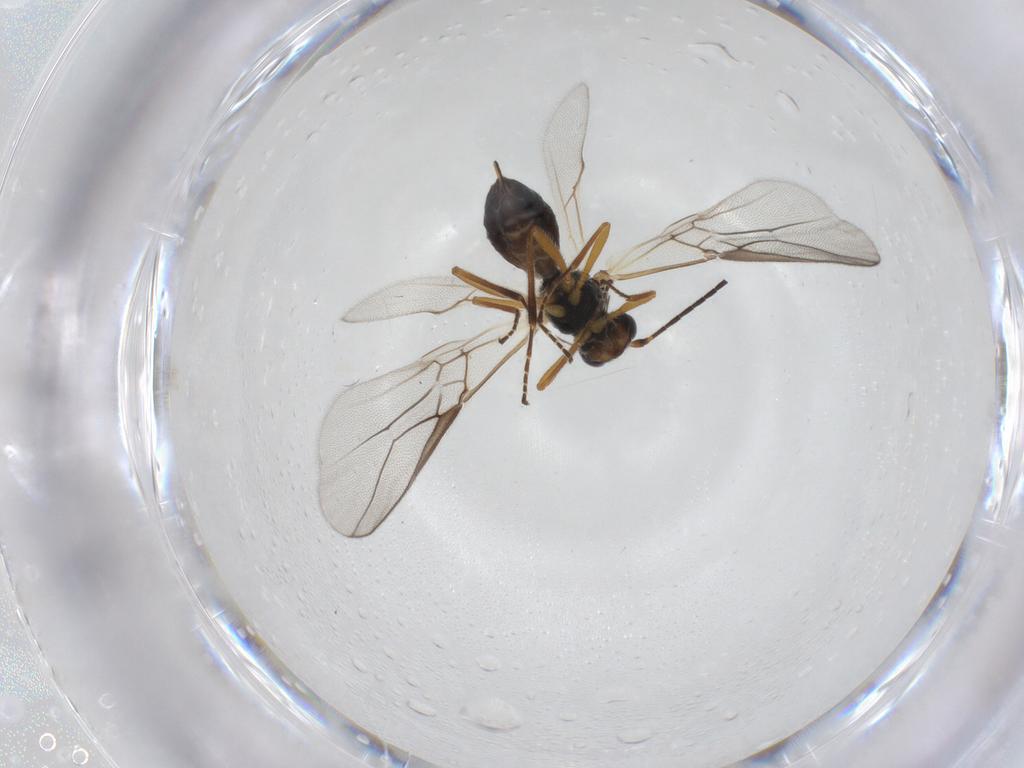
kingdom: Animalia
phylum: Arthropoda
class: Insecta
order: Hymenoptera
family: Braconidae
